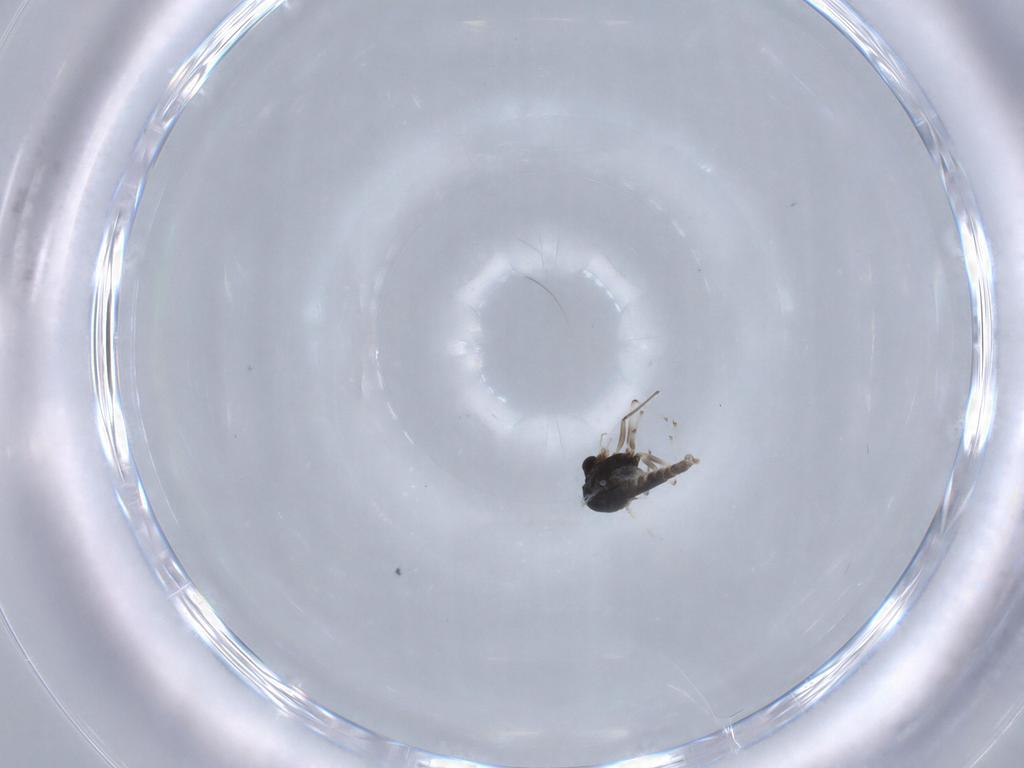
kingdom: Animalia
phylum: Arthropoda
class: Insecta
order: Diptera
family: Chironomidae
